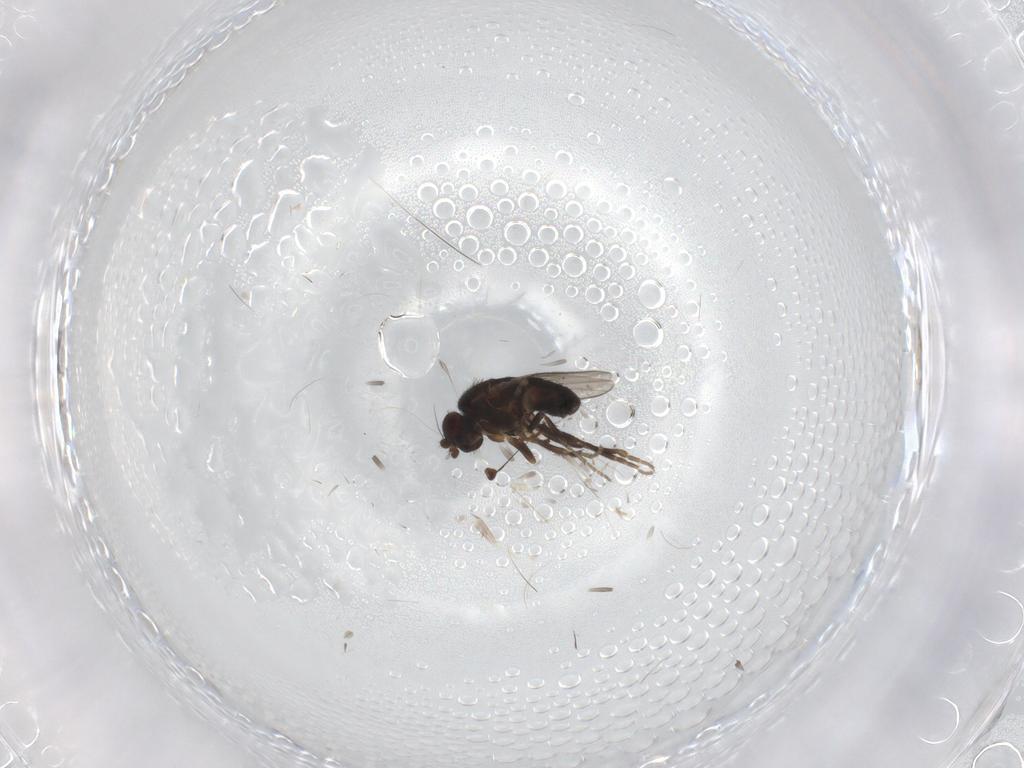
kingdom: Animalia
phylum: Arthropoda
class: Insecta
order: Diptera
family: Sphaeroceridae
